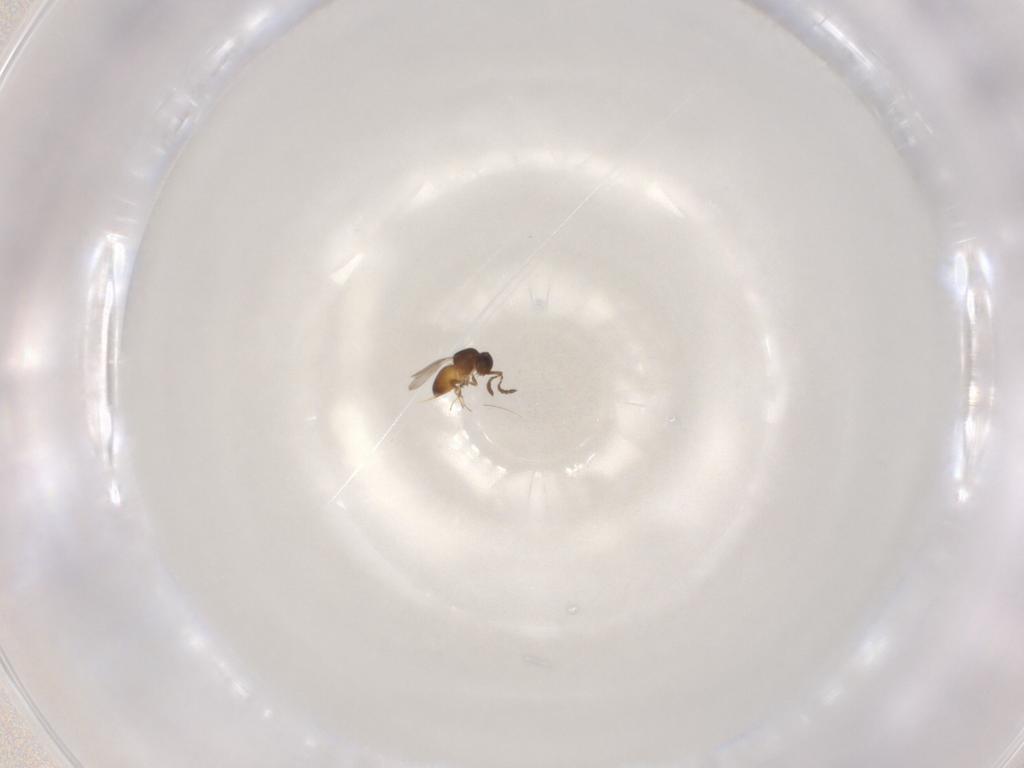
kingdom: Animalia
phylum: Arthropoda
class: Insecta
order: Hymenoptera
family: Ceraphronidae
